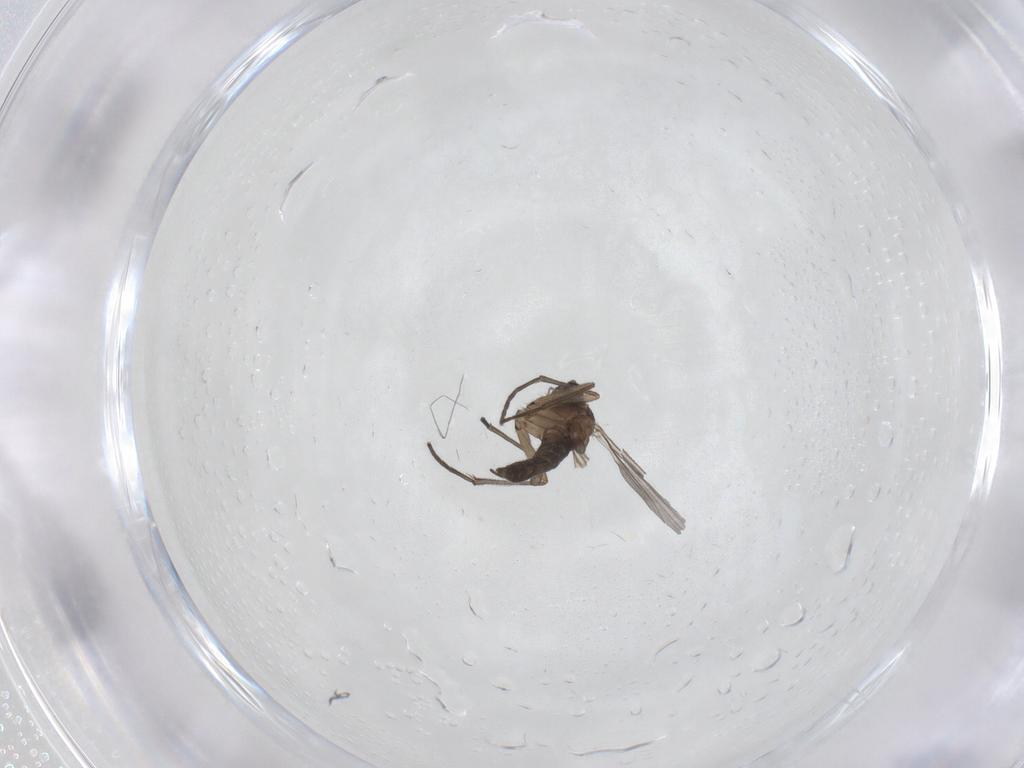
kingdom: Animalia
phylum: Arthropoda
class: Insecta
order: Diptera
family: Sciaridae
